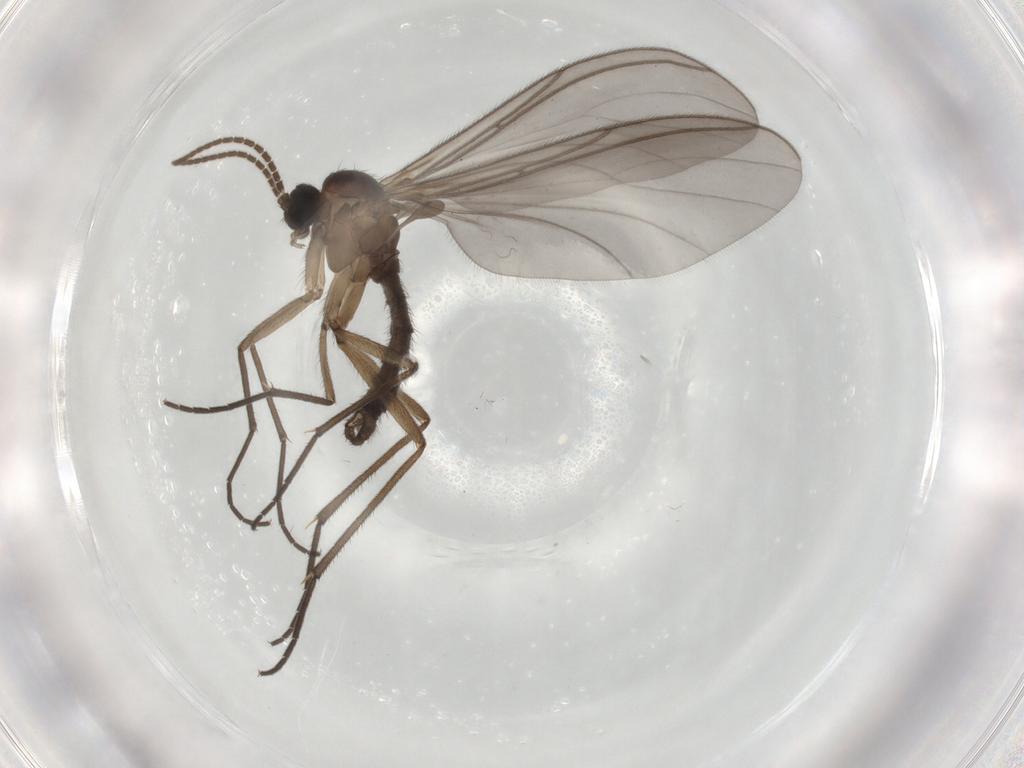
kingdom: Animalia
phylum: Arthropoda
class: Insecta
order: Diptera
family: Sciaridae
